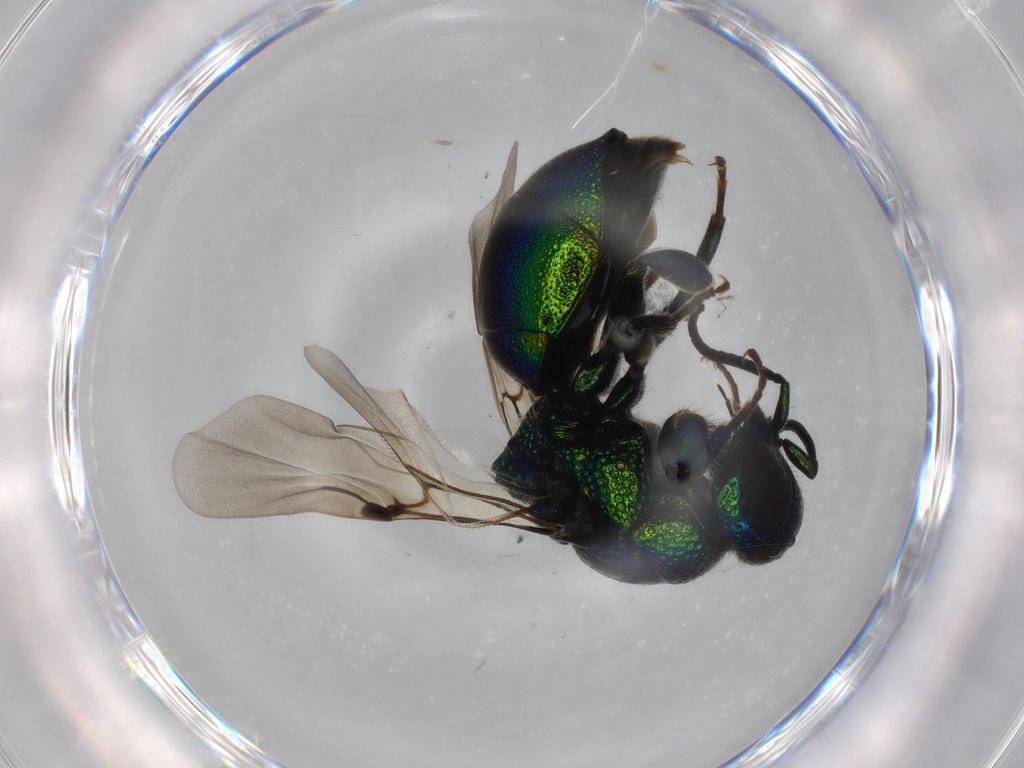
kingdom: Animalia
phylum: Arthropoda
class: Insecta
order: Hymenoptera
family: Chrysididae
